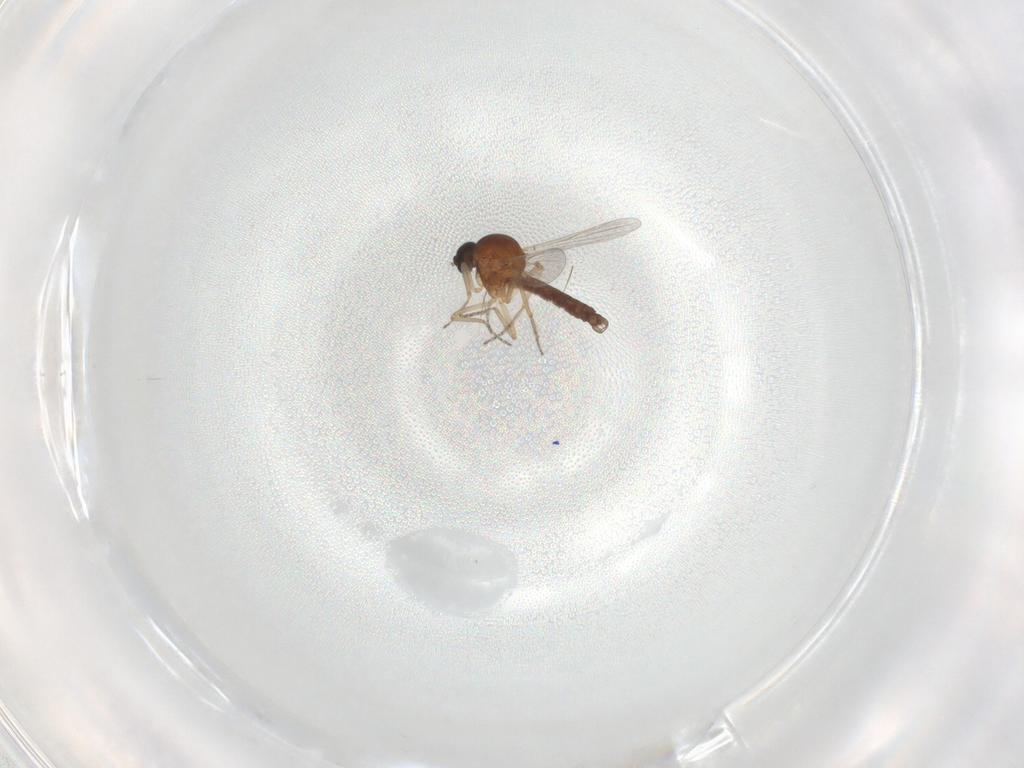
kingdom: Animalia
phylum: Arthropoda
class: Insecta
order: Diptera
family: Ceratopogonidae
